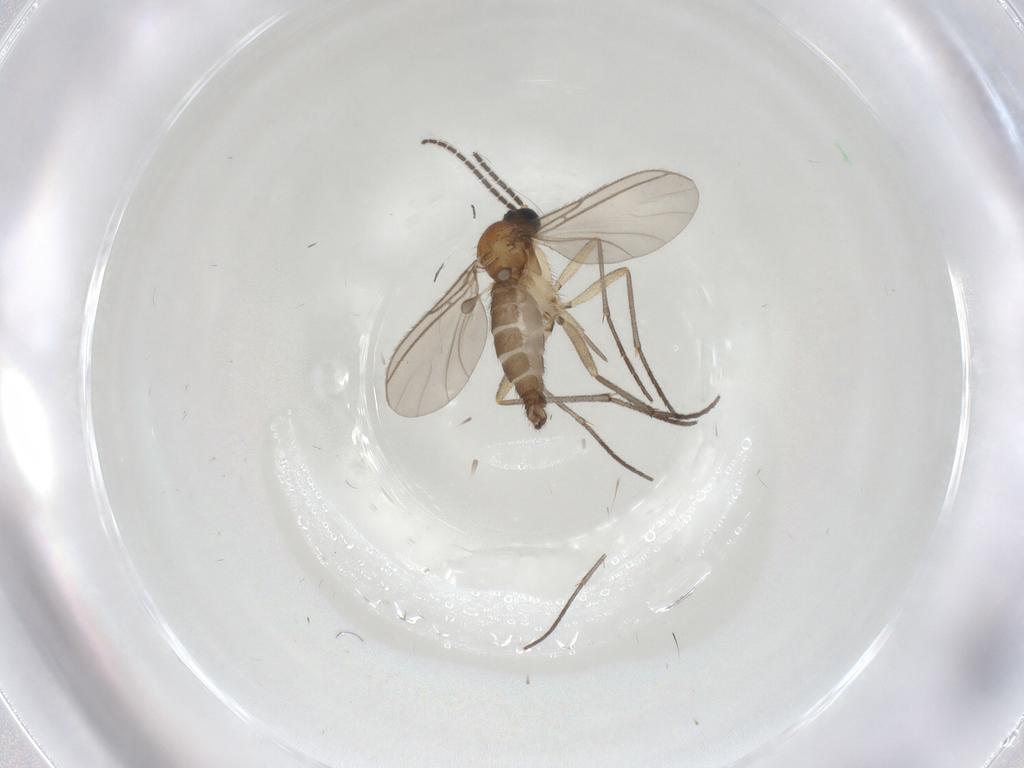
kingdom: Animalia
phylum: Arthropoda
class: Insecta
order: Diptera
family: Sciaridae
